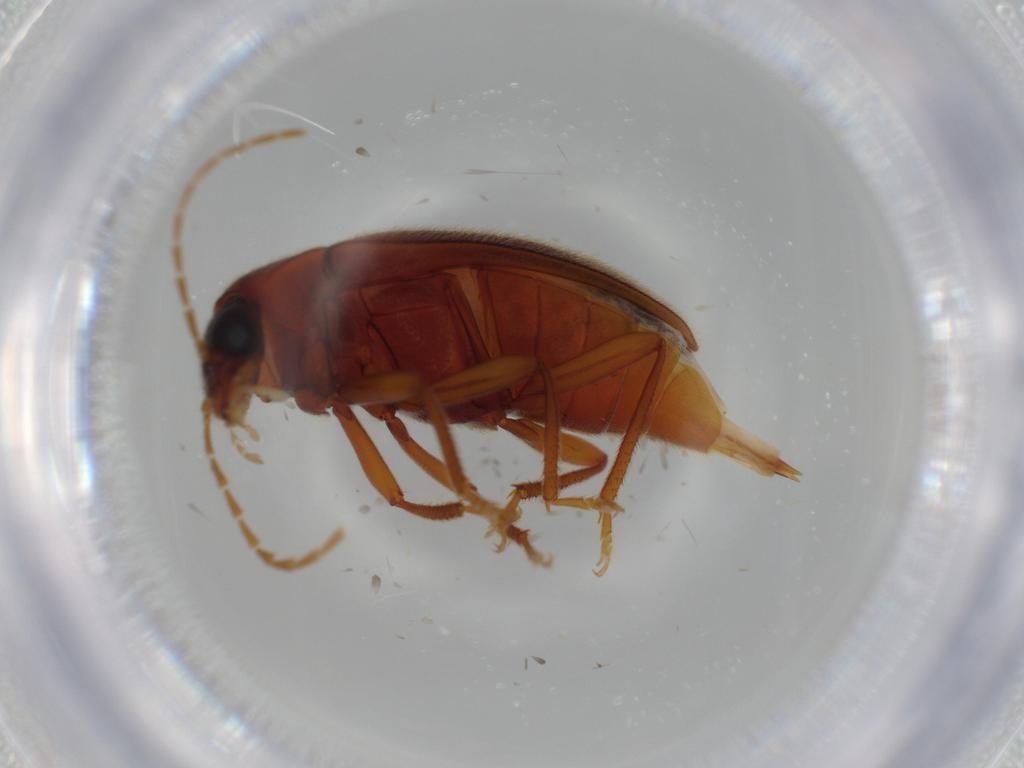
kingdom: Animalia
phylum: Arthropoda
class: Insecta
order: Coleoptera
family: Ptilodactylidae
